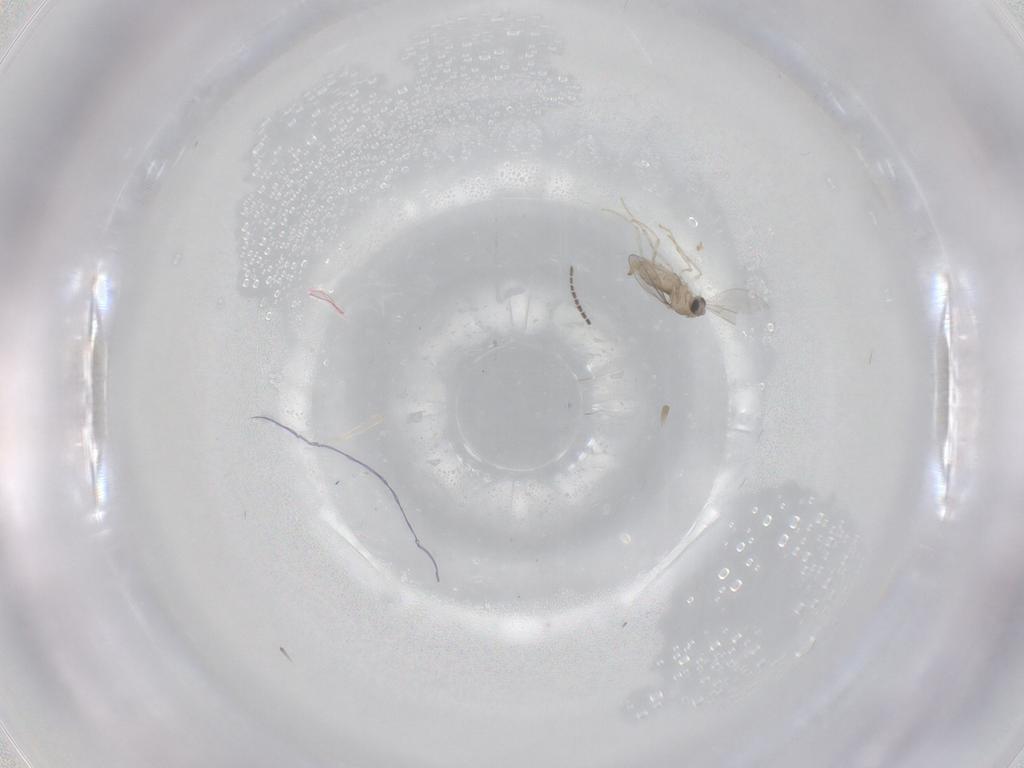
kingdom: Animalia
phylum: Arthropoda
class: Insecta
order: Diptera
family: Cecidomyiidae
